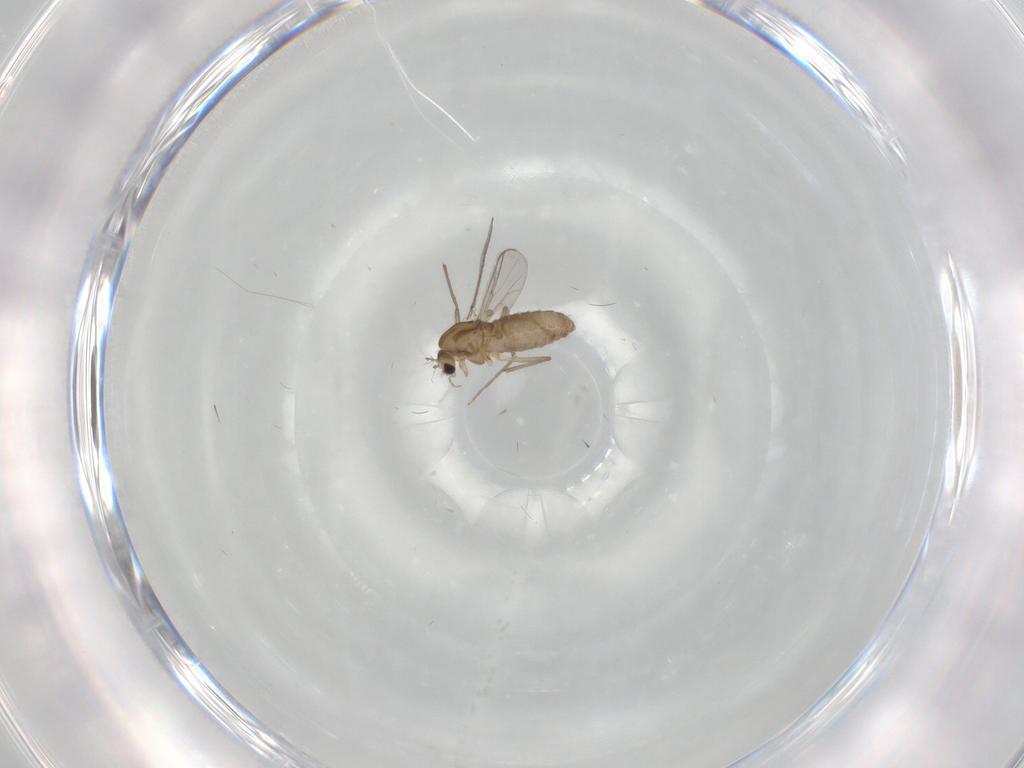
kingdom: Animalia
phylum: Arthropoda
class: Insecta
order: Diptera
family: Chironomidae
